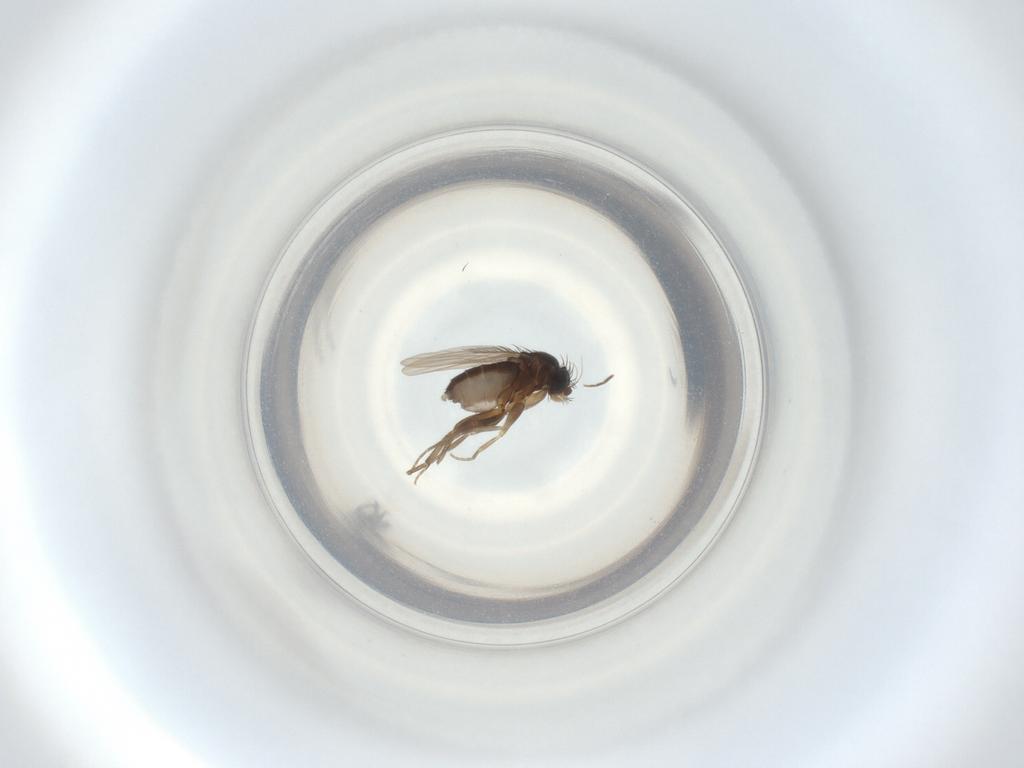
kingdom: Animalia
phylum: Arthropoda
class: Insecta
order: Diptera
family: Phoridae
